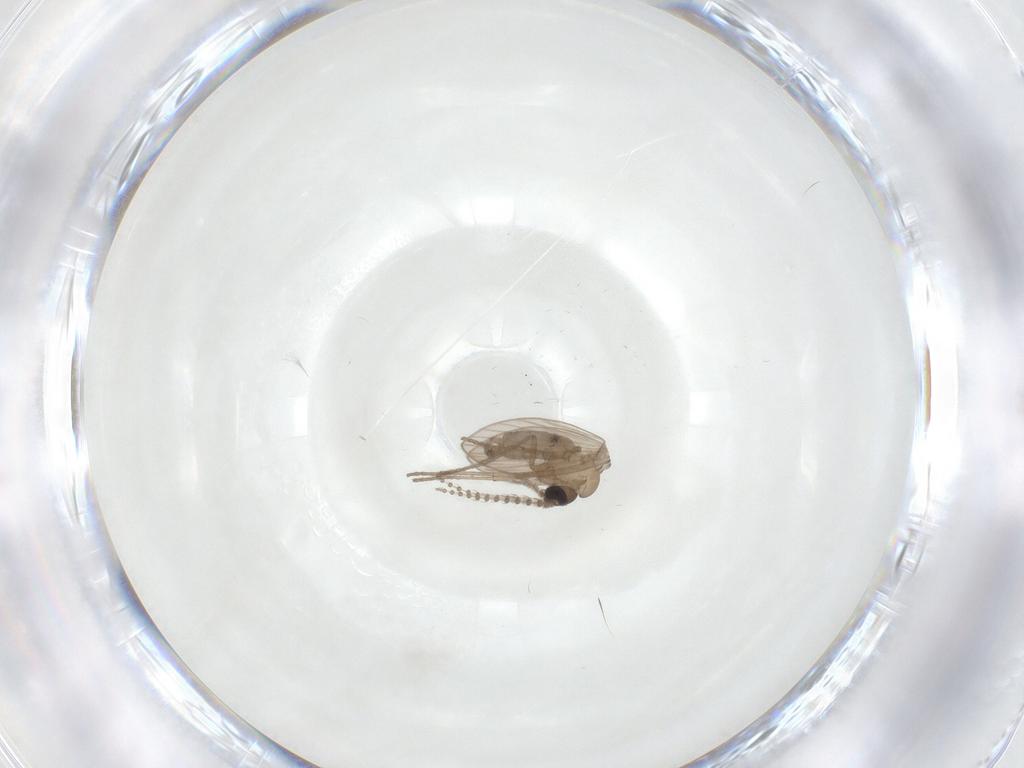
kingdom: Animalia
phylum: Arthropoda
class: Insecta
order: Diptera
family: Psychodidae
